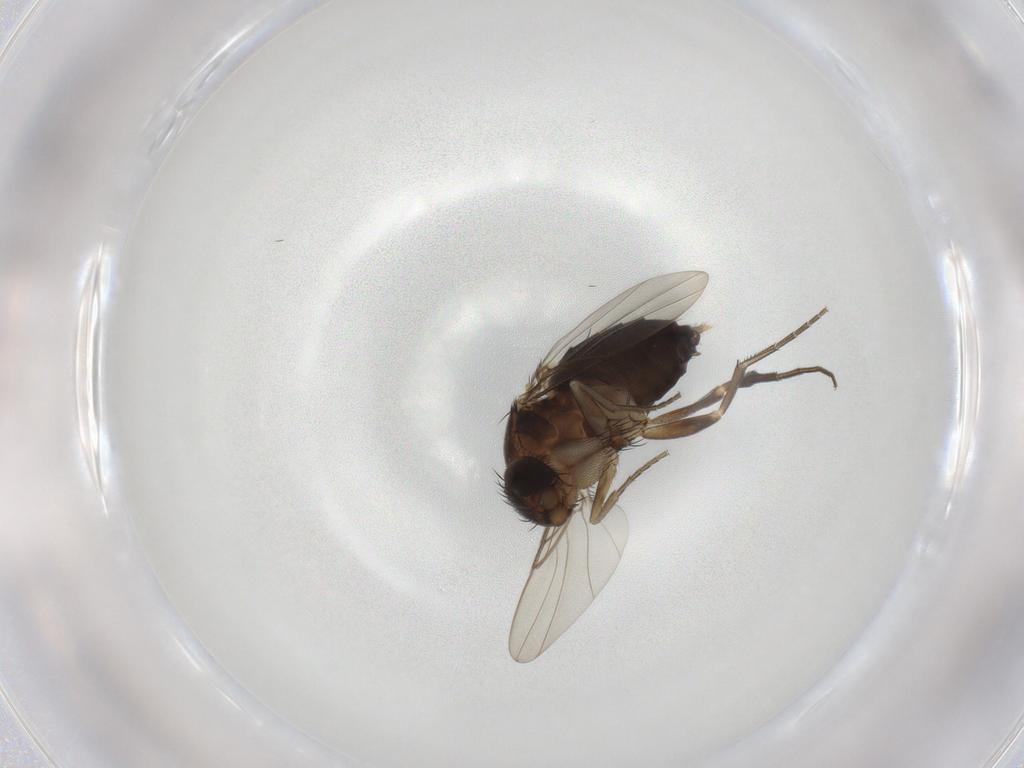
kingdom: Animalia
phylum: Arthropoda
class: Insecta
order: Diptera
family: Phoridae
